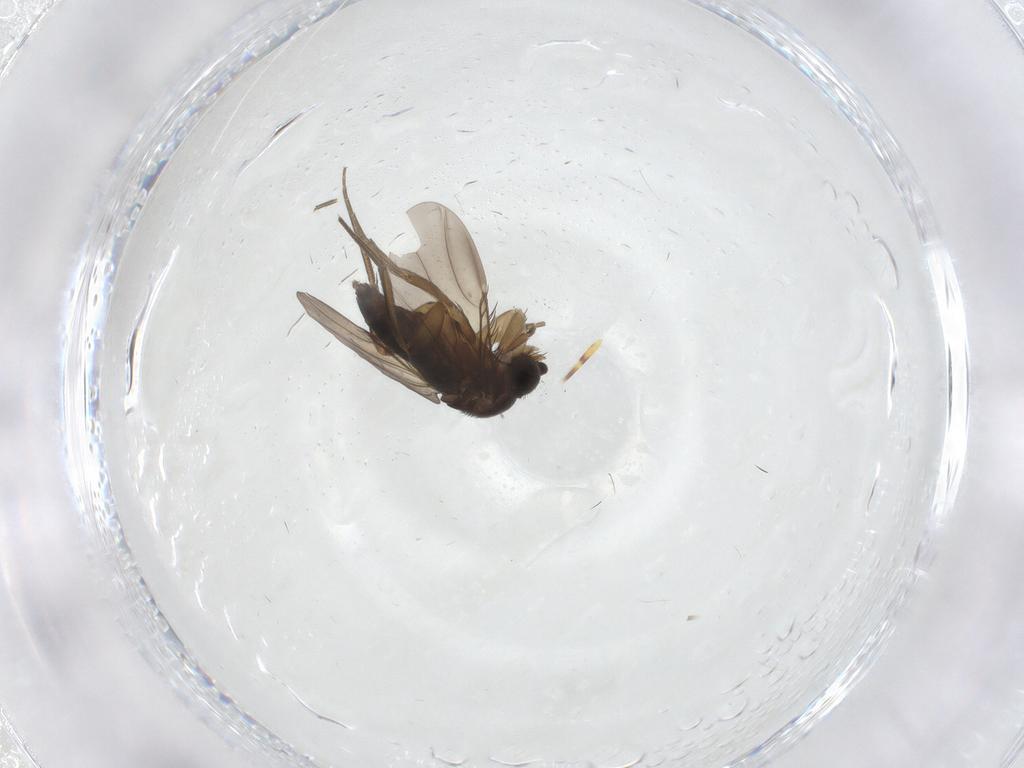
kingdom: Animalia
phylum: Arthropoda
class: Insecta
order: Diptera
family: Phoridae
